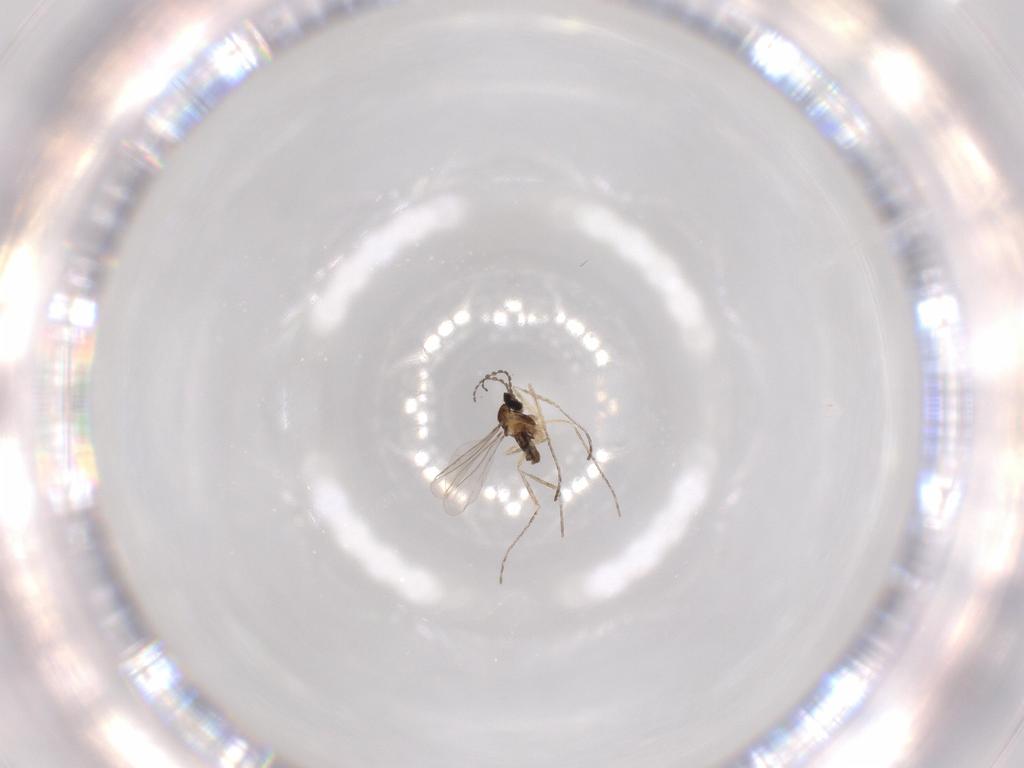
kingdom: Animalia
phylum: Arthropoda
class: Insecta
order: Diptera
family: Cecidomyiidae
